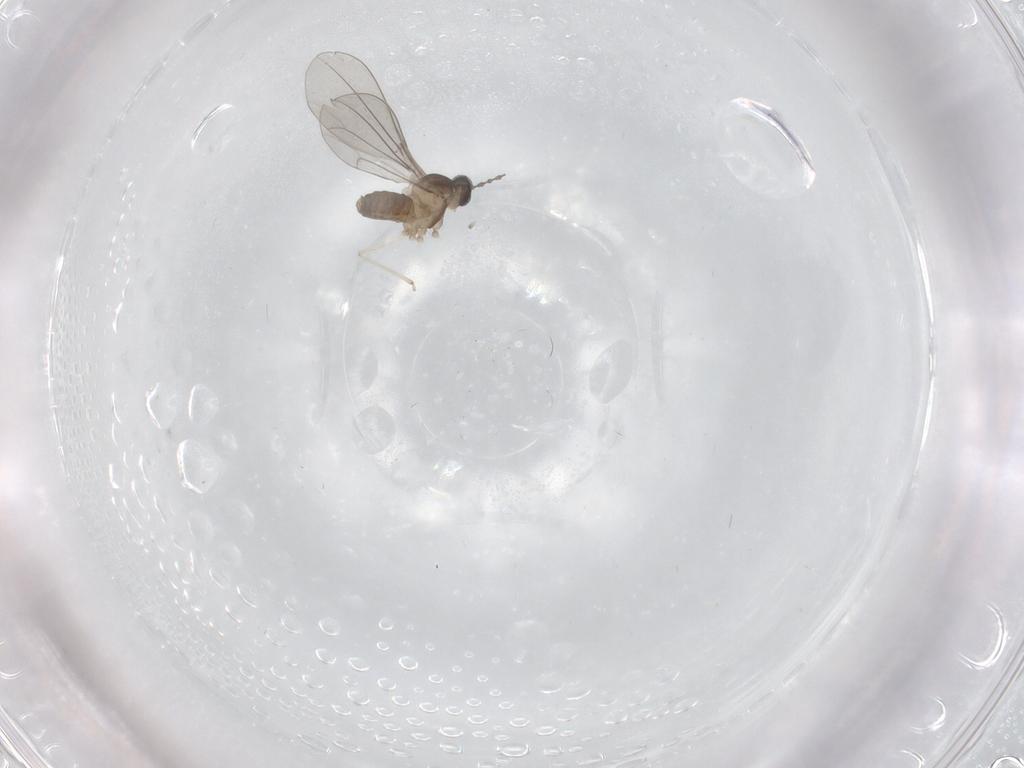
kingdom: Animalia
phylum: Arthropoda
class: Insecta
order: Diptera
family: Cecidomyiidae
